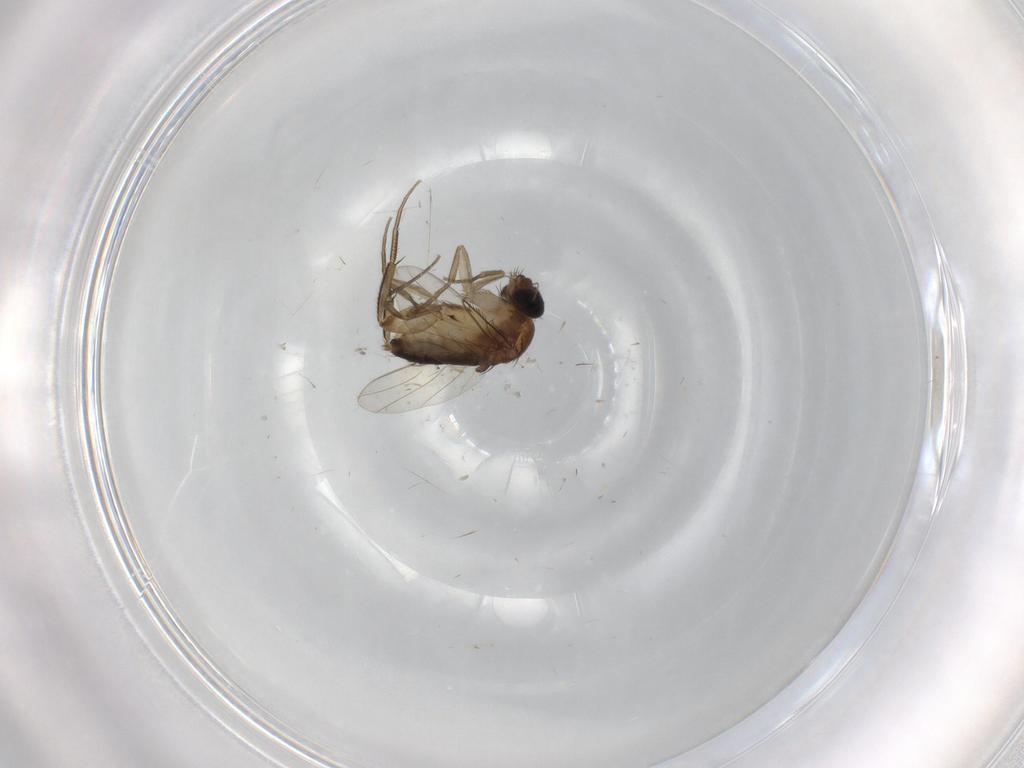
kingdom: Animalia
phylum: Arthropoda
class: Insecta
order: Diptera
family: Phoridae
